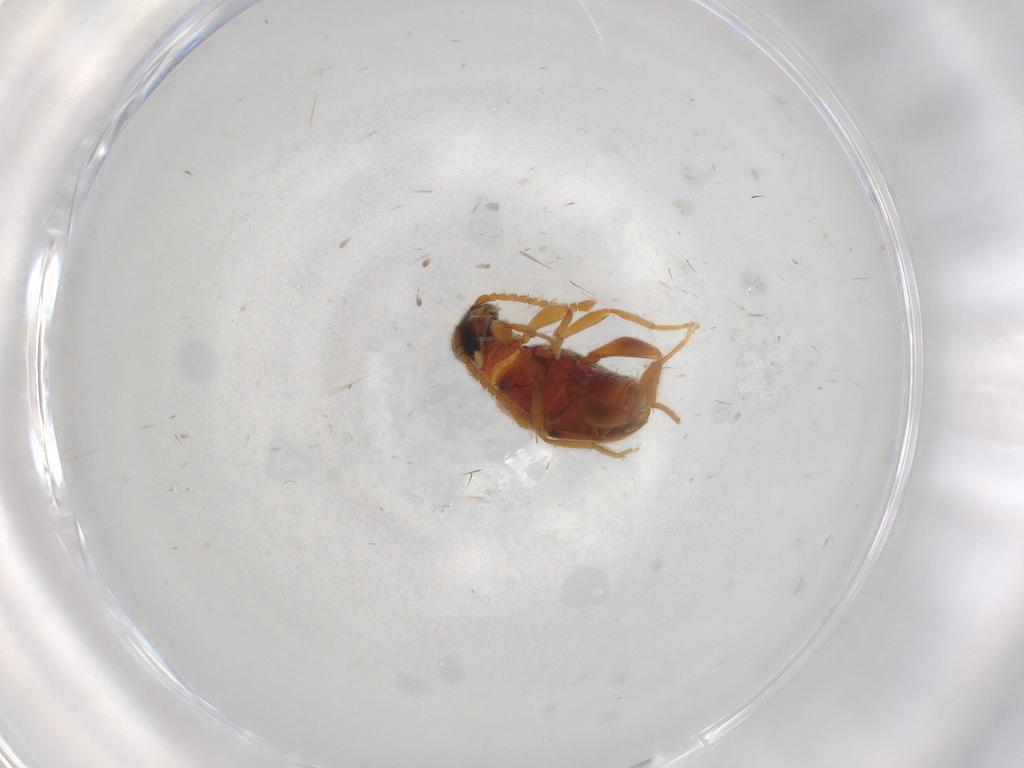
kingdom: Animalia
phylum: Arthropoda
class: Insecta
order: Coleoptera
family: Aderidae
